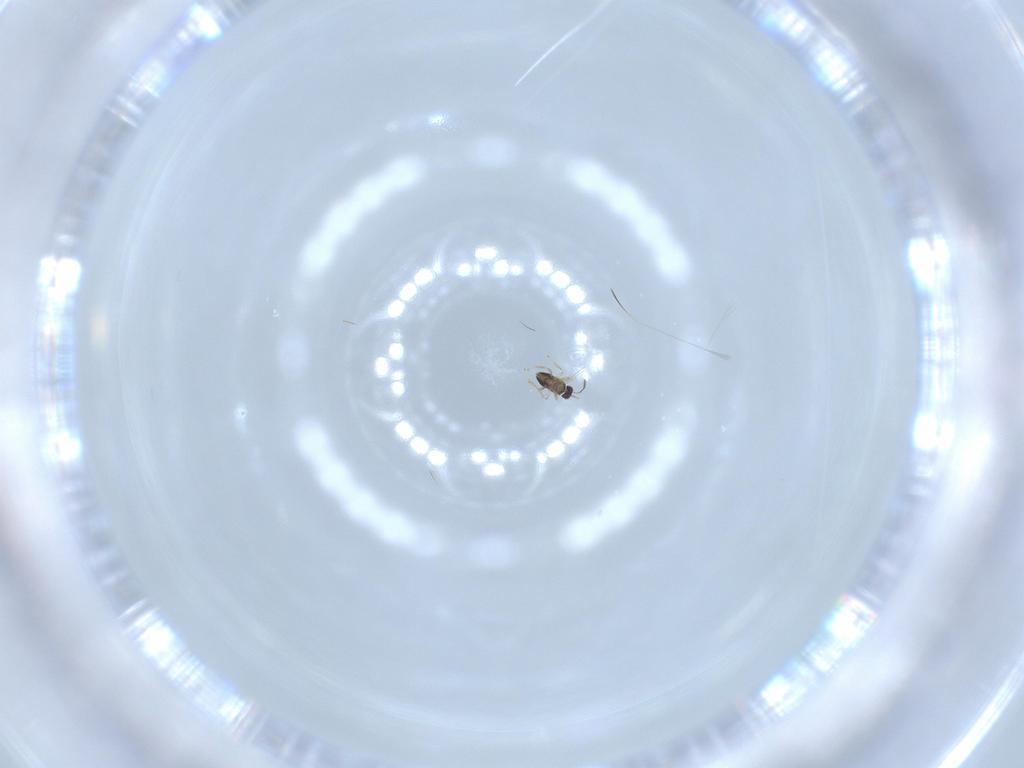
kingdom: Animalia
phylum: Arthropoda
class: Insecta
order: Hymenoptera
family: Mymaridae
